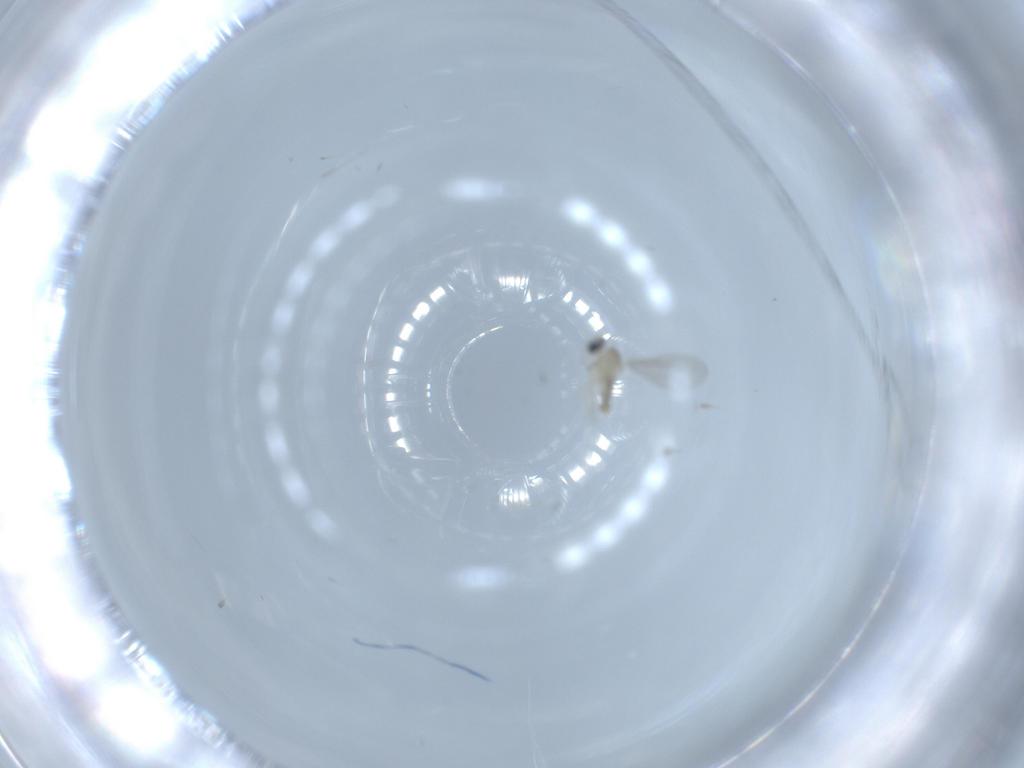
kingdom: Animalia
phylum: Arthropoda
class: Insecta
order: Diptera
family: Cecidomyiidae
